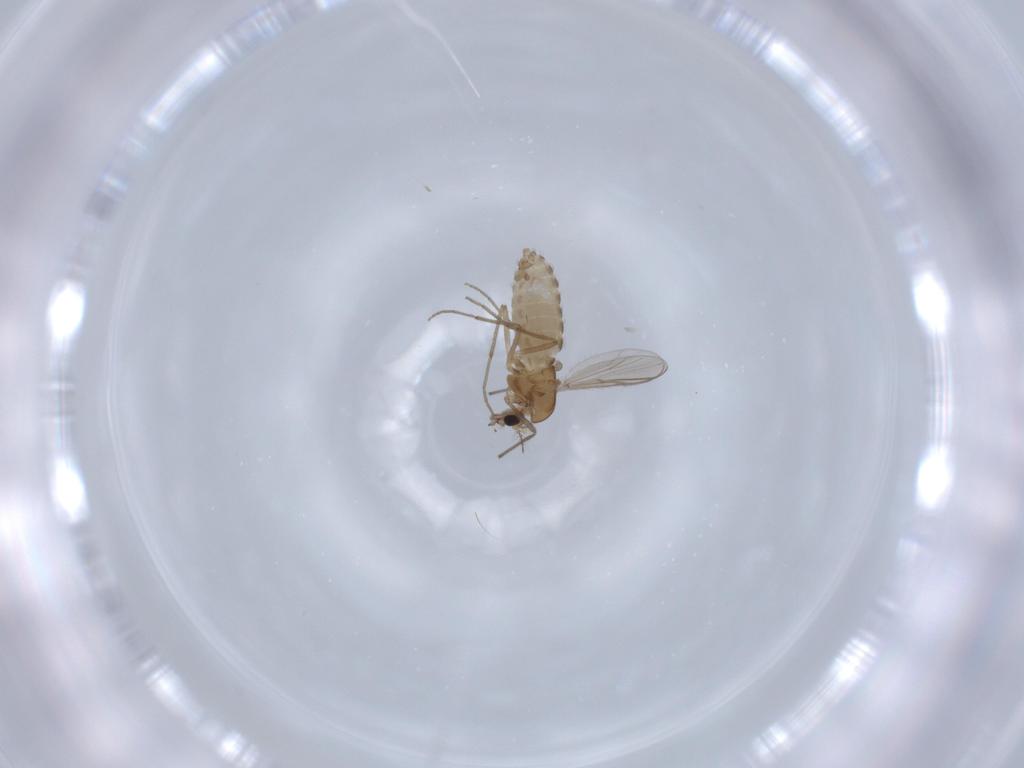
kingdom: Animalia
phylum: Arthropoda
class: Insecta
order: Diptera
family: Chironomidae
